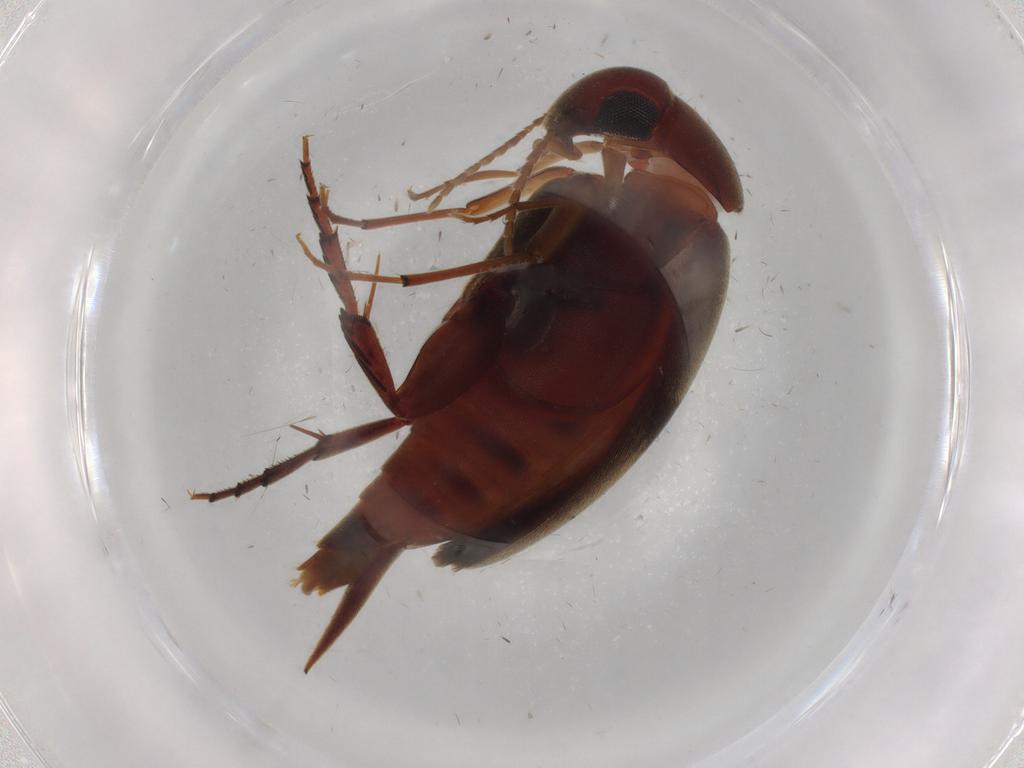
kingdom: Animalia
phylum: Arthropoda
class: Insecta
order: Coleoptera
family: Mordellidae
